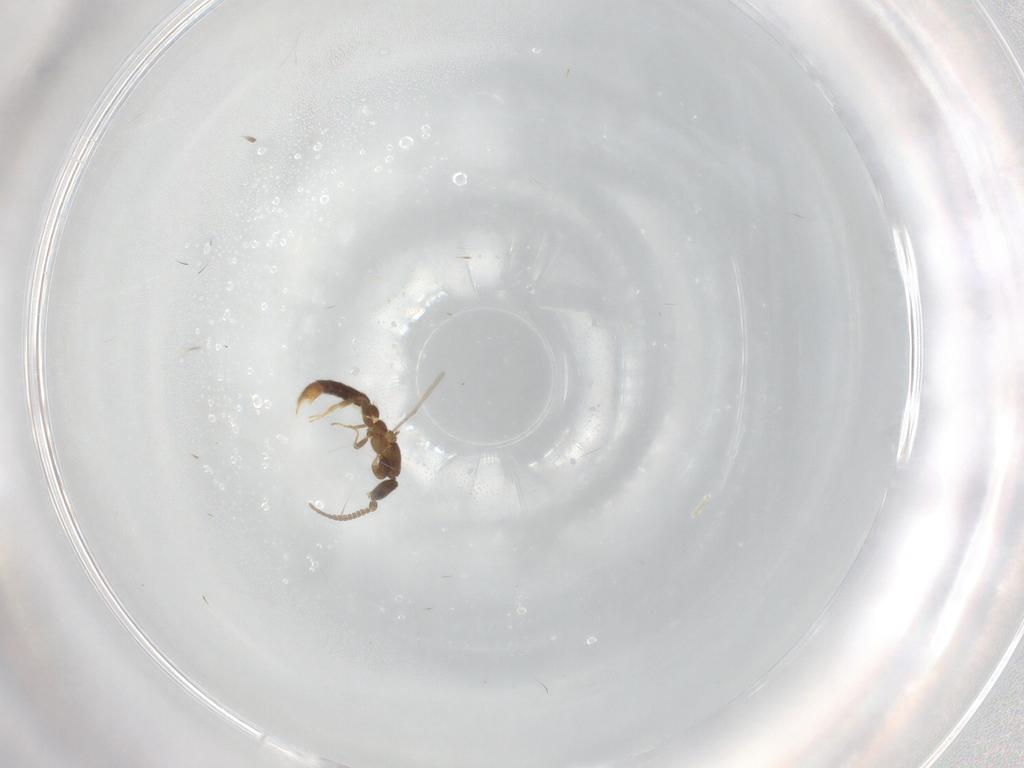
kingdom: Animalia
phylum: Arthropoda
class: Insecta
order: Hymenoptera
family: Formicidae
